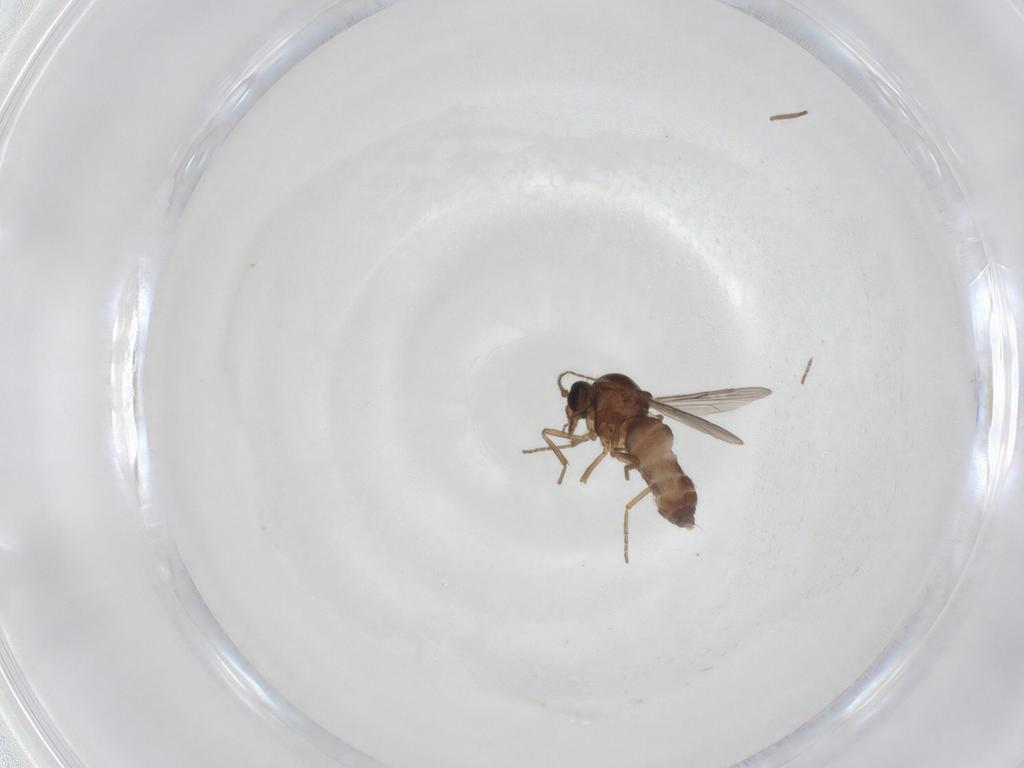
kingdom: Animalia
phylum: Arthropoda
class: Insecta
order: Diptera
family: Ceratopogonidae
